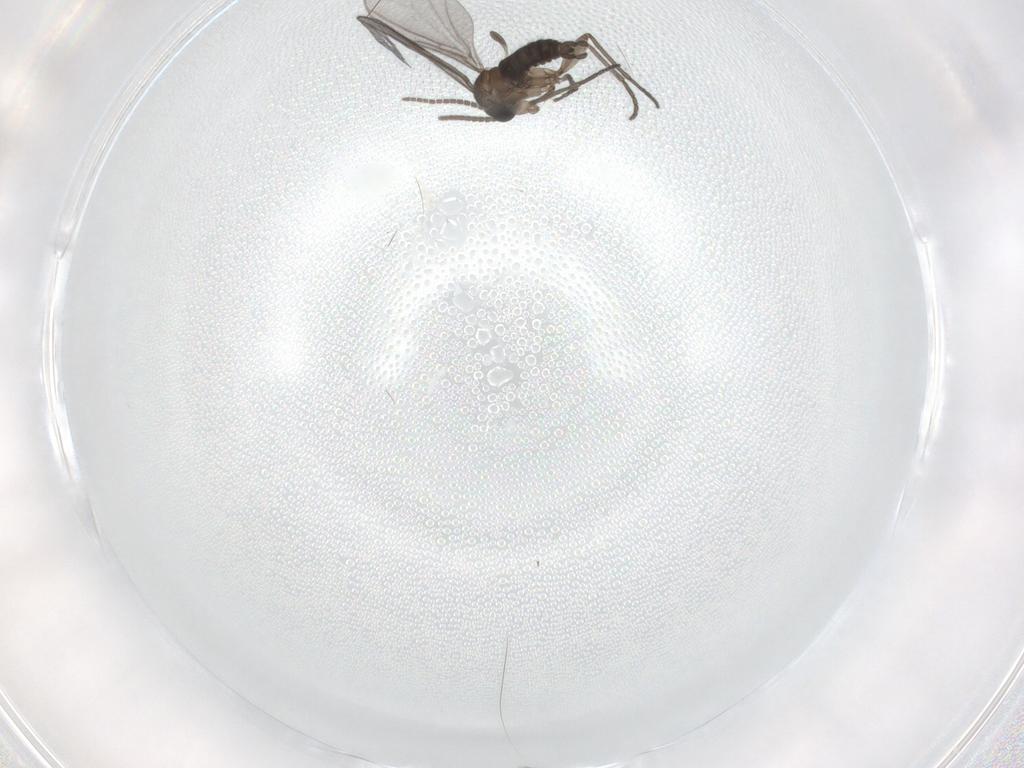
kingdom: Animalia
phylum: Arthropoda
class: Insecta
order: Diptera
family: Sciaridae
